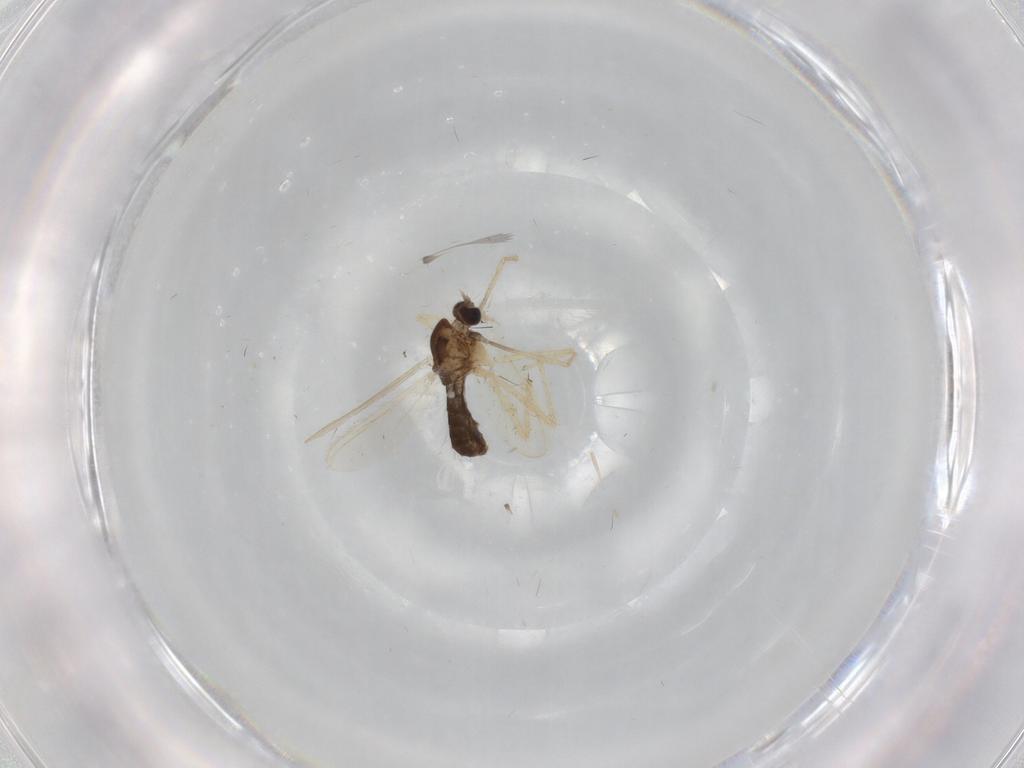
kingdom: Animalia
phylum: Arthropoda
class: Insecta
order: Diptera
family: Chironomidae
